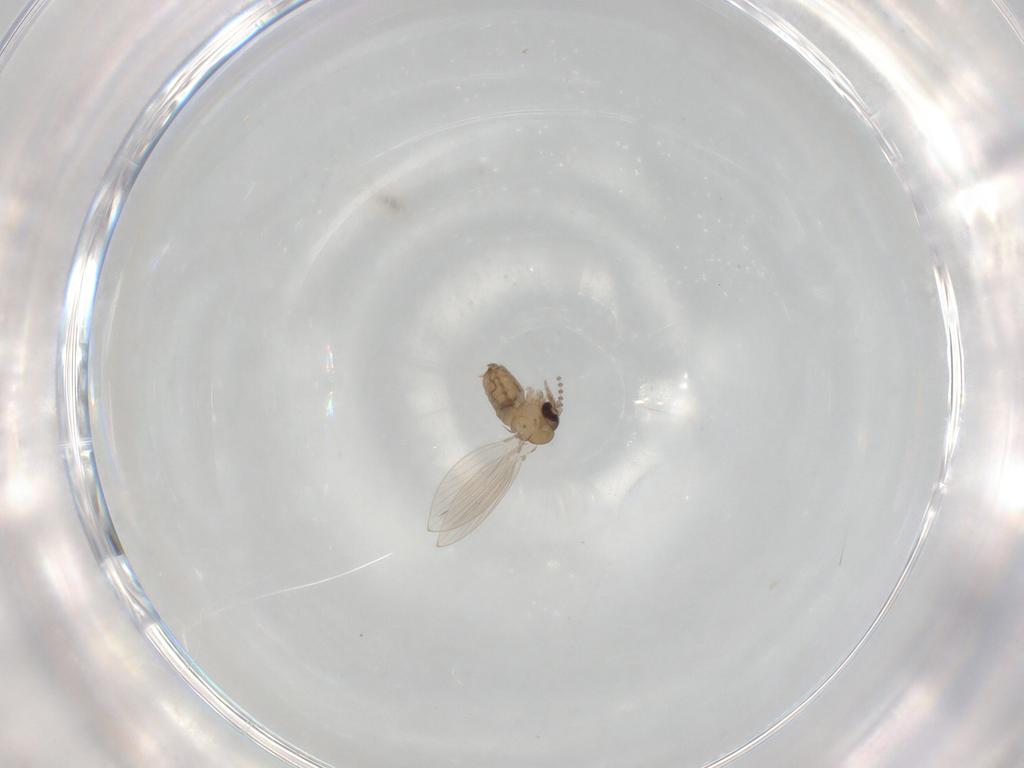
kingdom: Animalia
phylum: Arthropoda
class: Insecta
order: Diptera
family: Psychodidae
